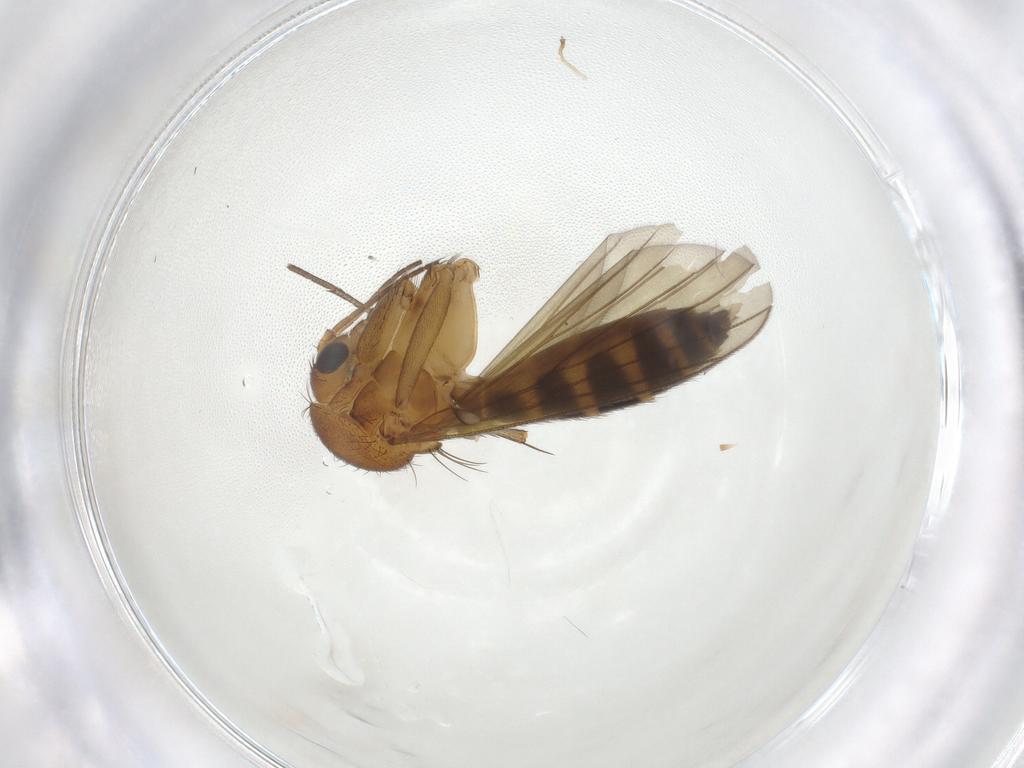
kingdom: Animalia
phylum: Arthropoda
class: Insecta
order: Diptera
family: Empididae
